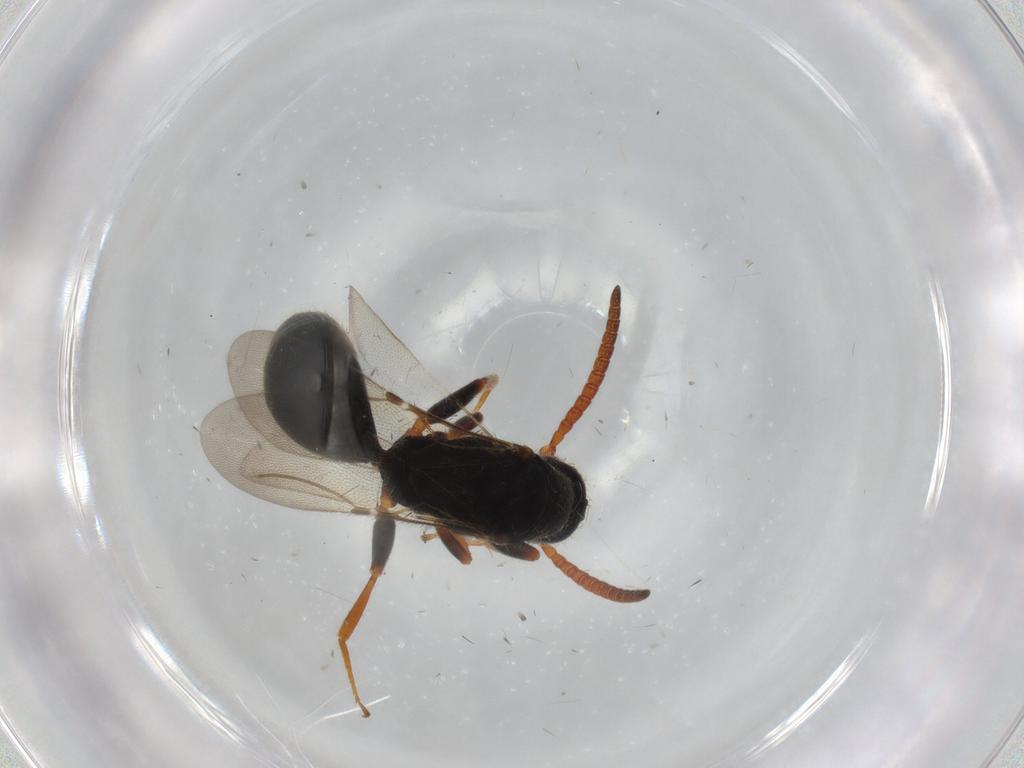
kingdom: Animalia
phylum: Arthropoda
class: Insecta
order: Hymenoptera
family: Bethylidae
